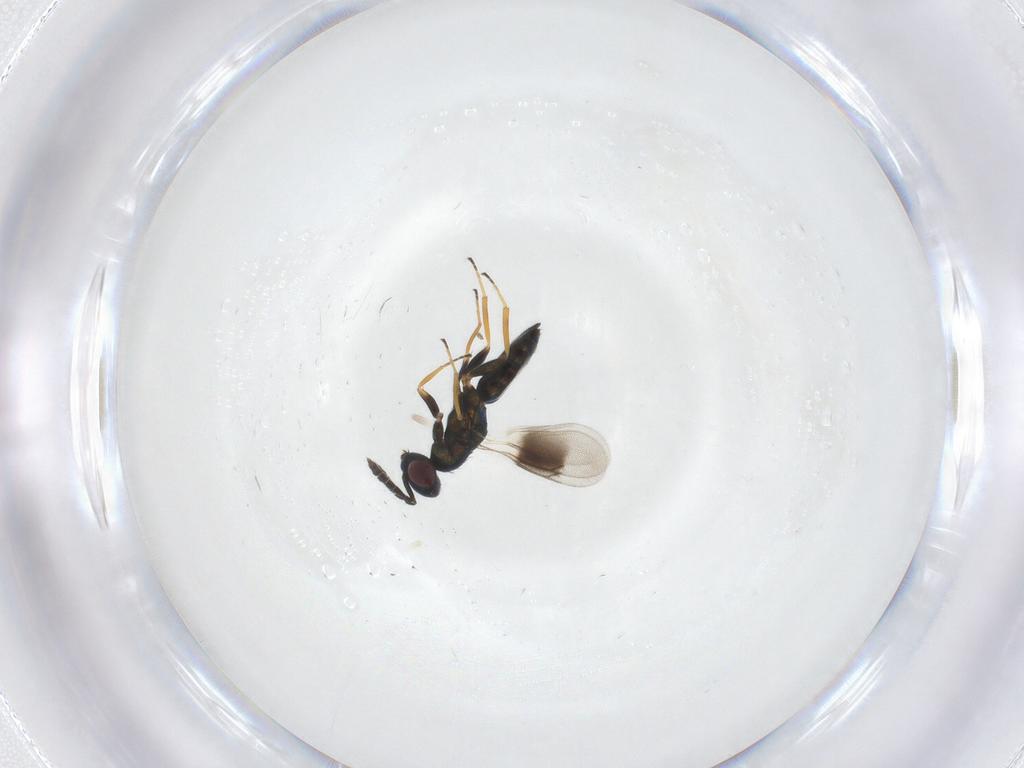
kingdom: Animalia
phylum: Arthropoda
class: Insecta
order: Hymenoptera
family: Eulophidae
